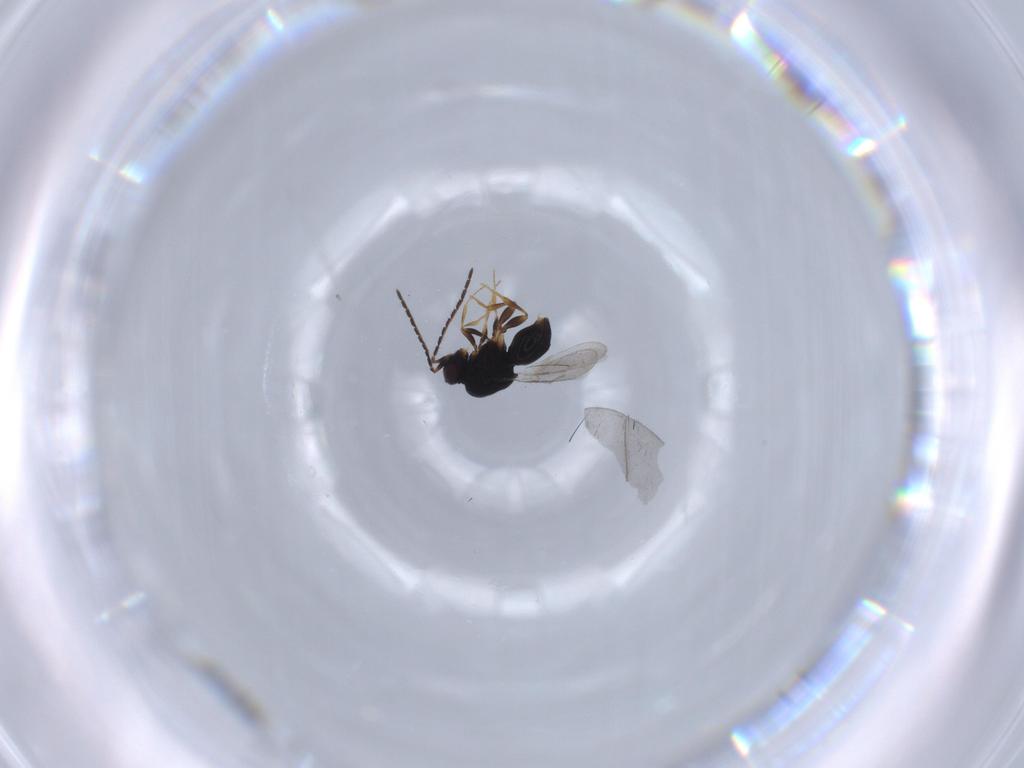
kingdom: Animalia
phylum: Arthropoda
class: Insecta
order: Hymenoptera
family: Ceraphronidae
